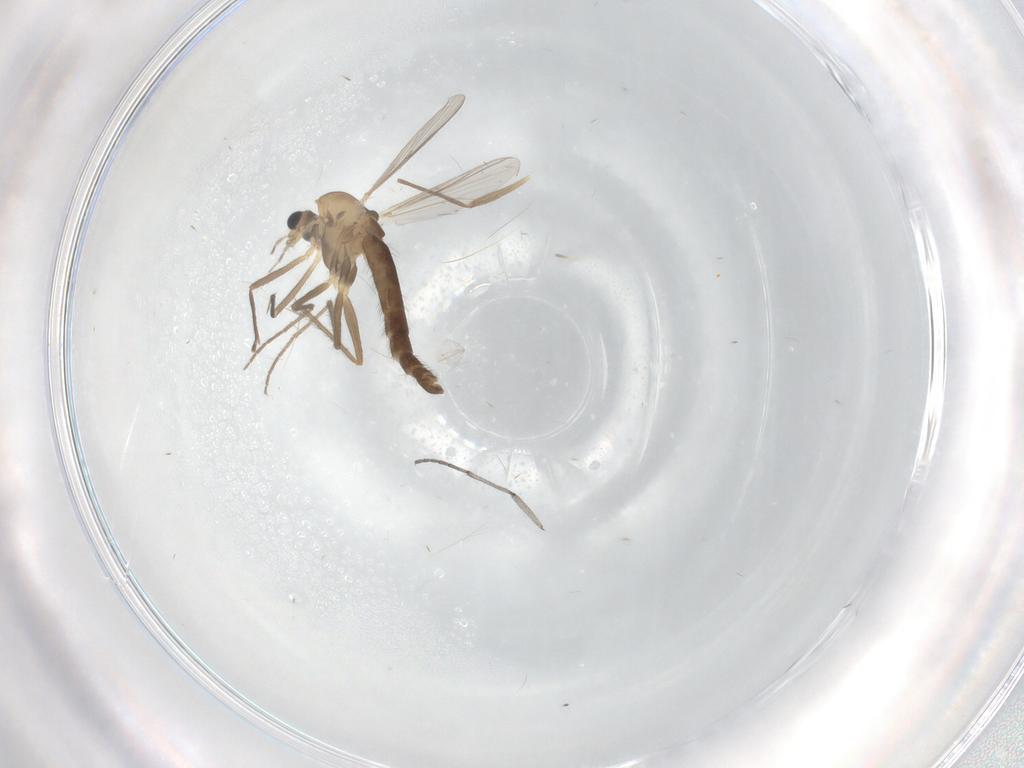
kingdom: Animalia
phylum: Arthropoda
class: Insecta
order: Diptera
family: Chironomidae
